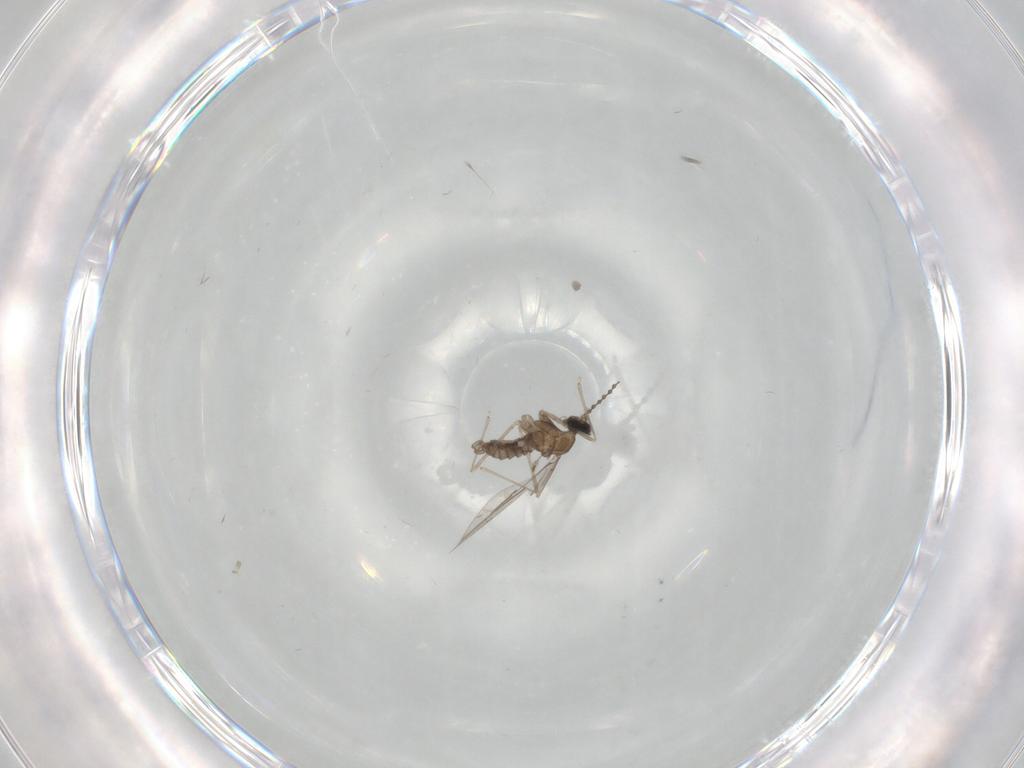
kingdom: Animalia
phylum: Arthropoda
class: Insecta
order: Diptera
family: Cecidomyiidae
